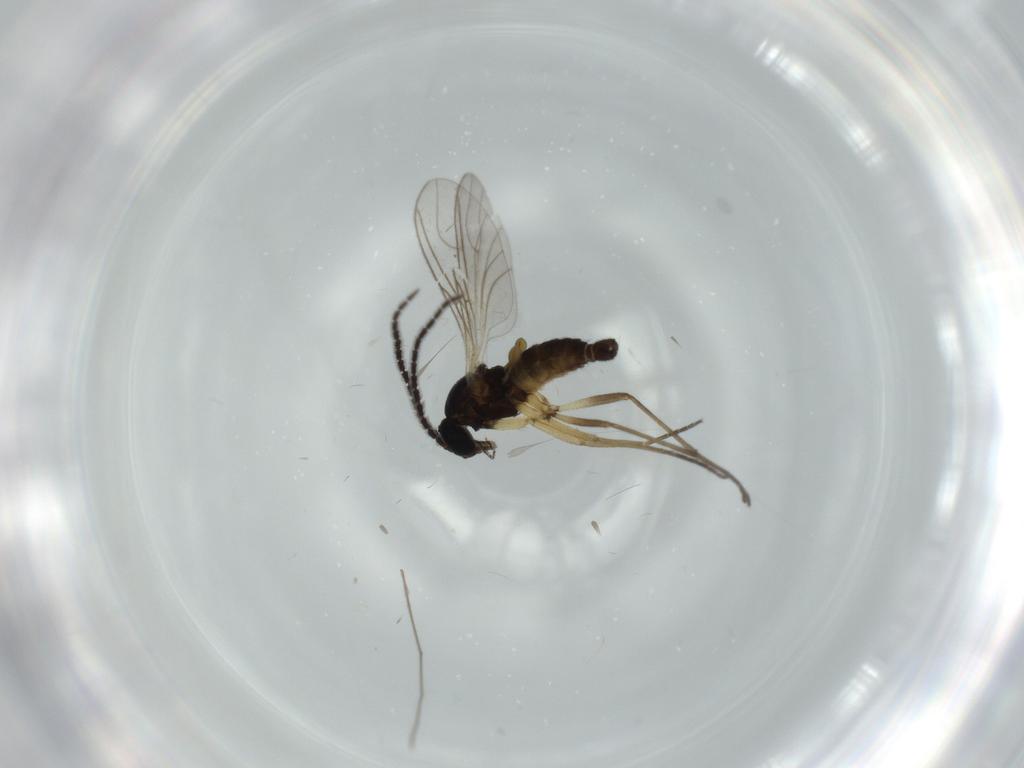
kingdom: Animalia
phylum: Arthropoda
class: Insecta
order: Diptera
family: Sciaridae
